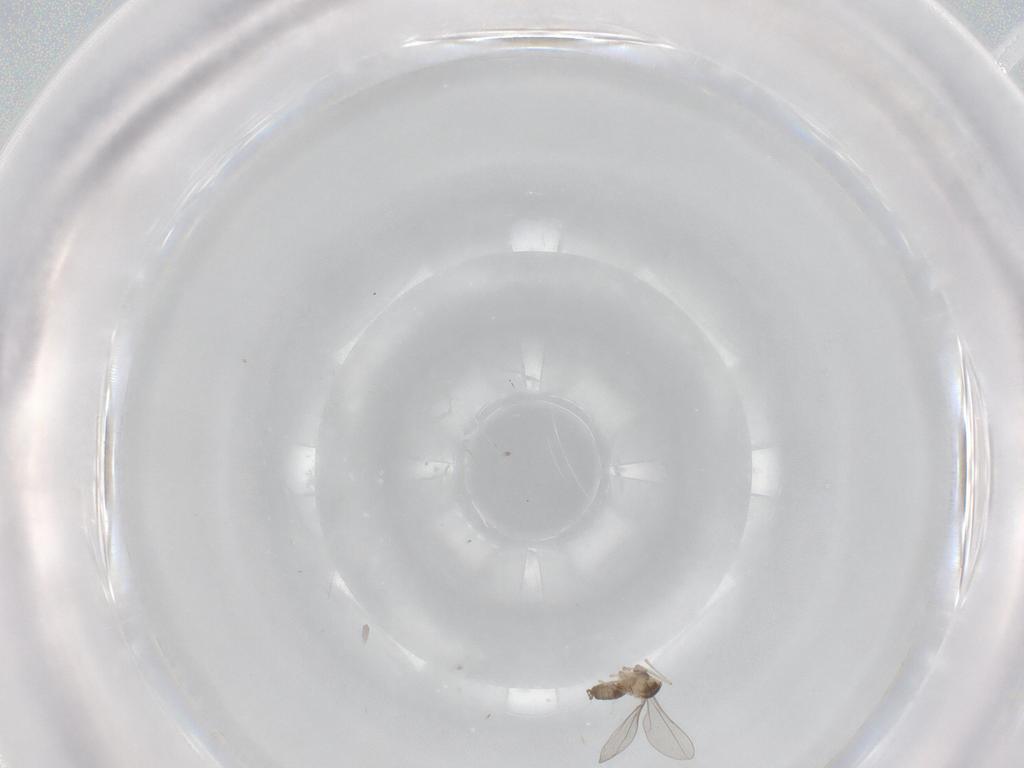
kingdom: Animalia
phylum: Arthropoda
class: Insecta
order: Diptera
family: Cecidomyiidae
